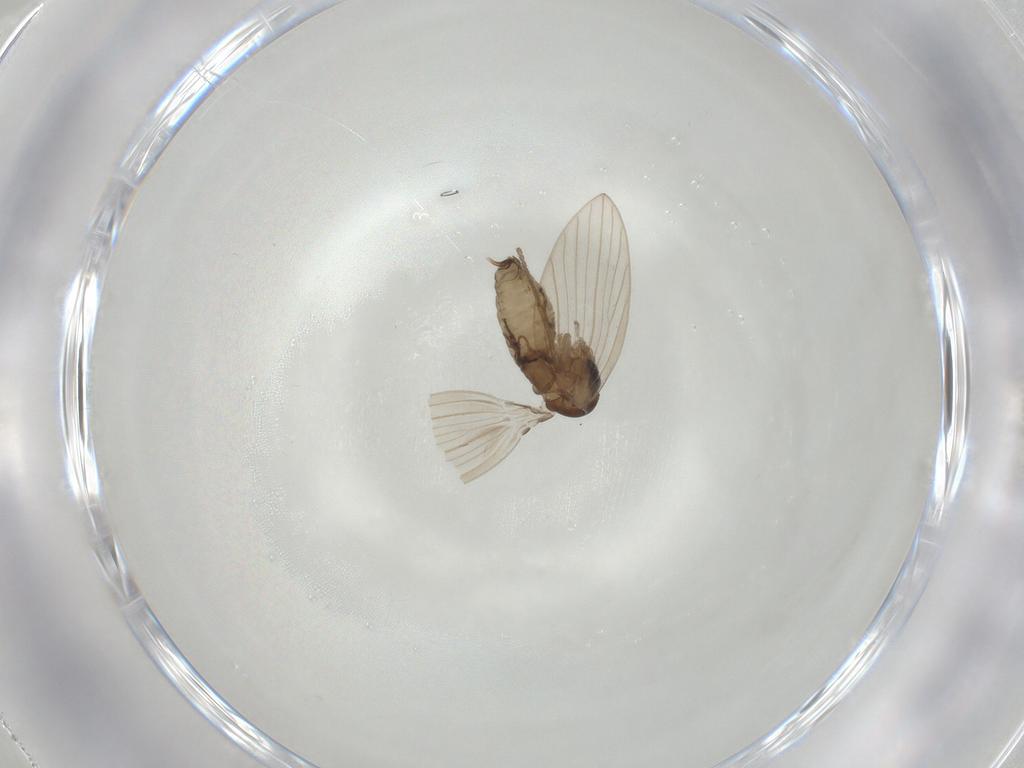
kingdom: Animalia
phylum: Arthropoda
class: Insecta
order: Diptera
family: Psychodidae
